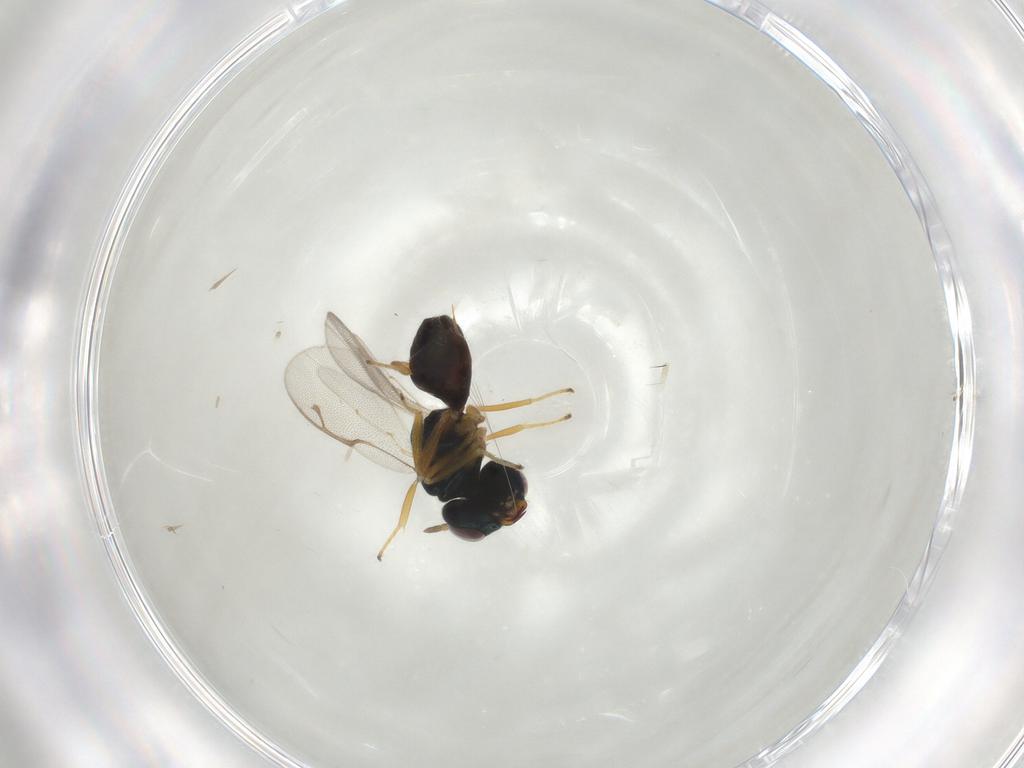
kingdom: Animalia
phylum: Arthropoda
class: Insecta
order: Hymenoptera
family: Pteromalidae
